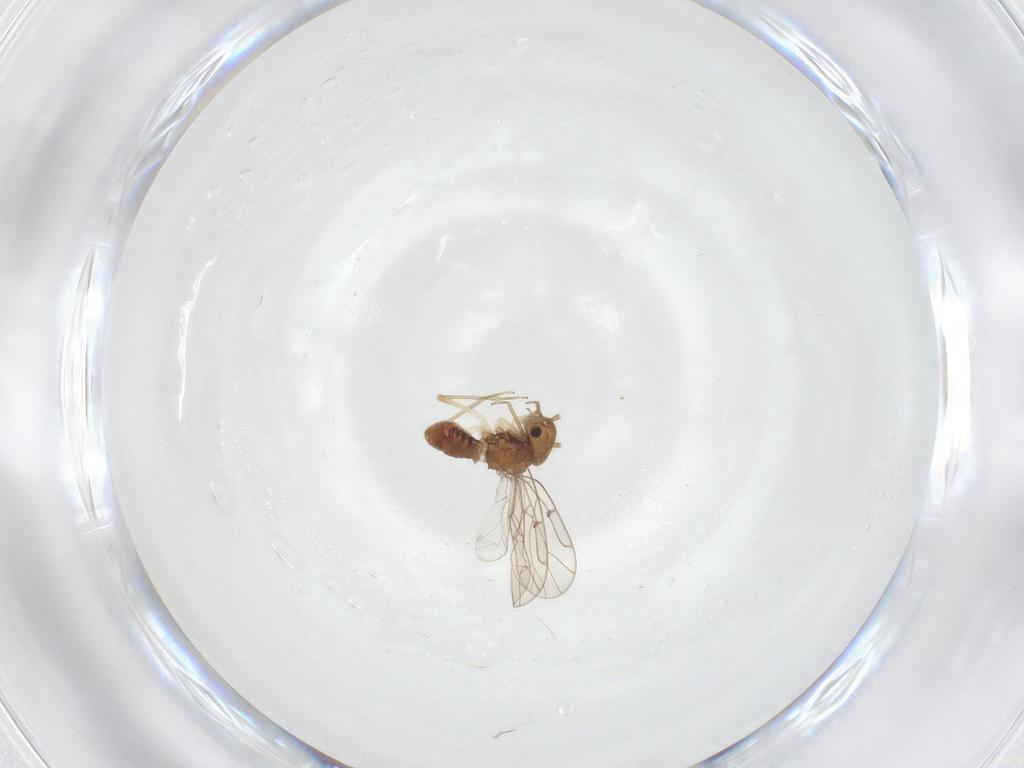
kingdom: Animalia
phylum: Arthropoda
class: Insecta
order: Psocodea
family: Ectopsocidae
